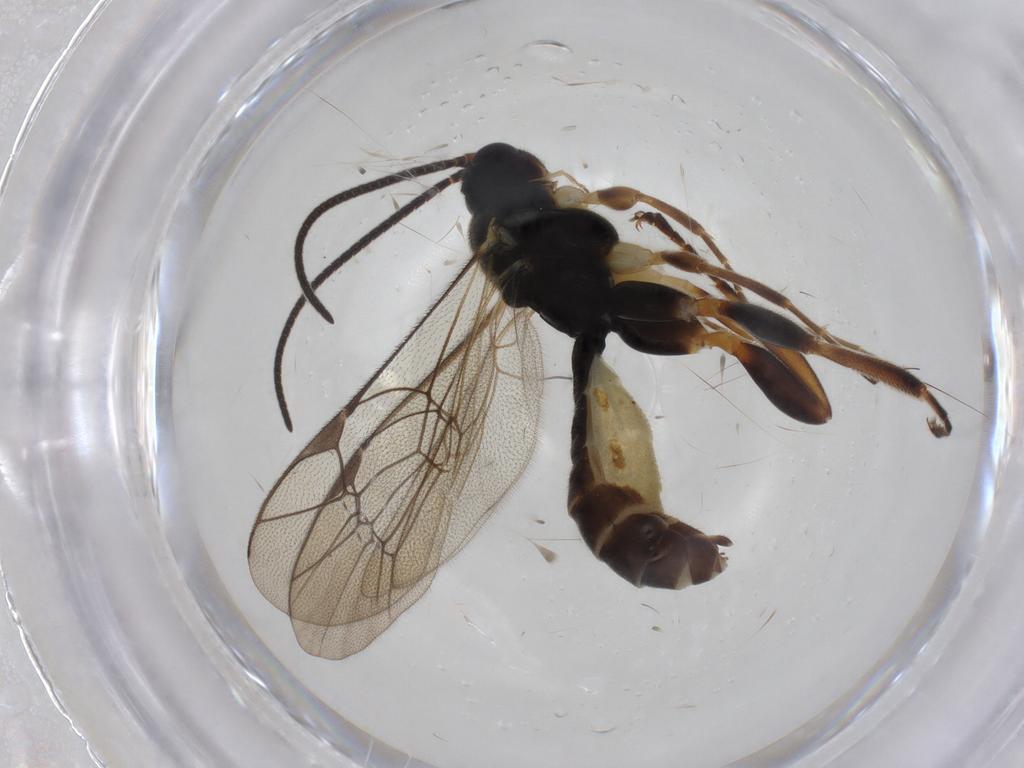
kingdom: Animalia
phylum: Arthropoda
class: Insecta
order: Hymenoptera
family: Ichneumonidae
